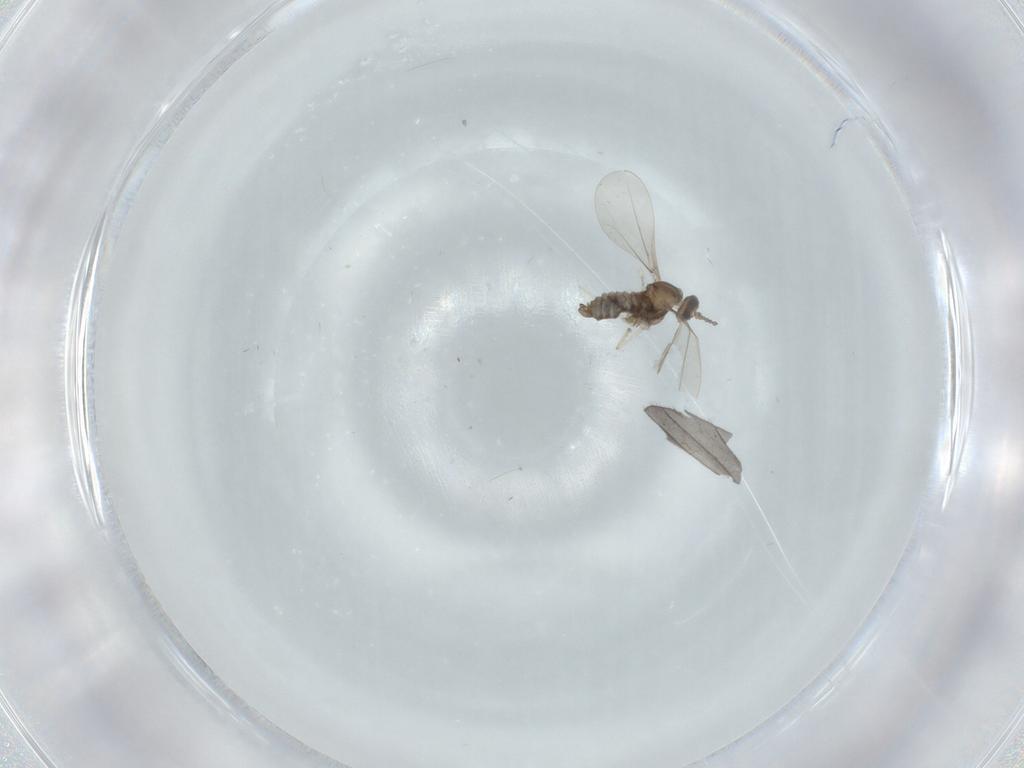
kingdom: Animalia
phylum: Arthropoda
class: Insecta
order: Diptera
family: Cecidomyiidae
